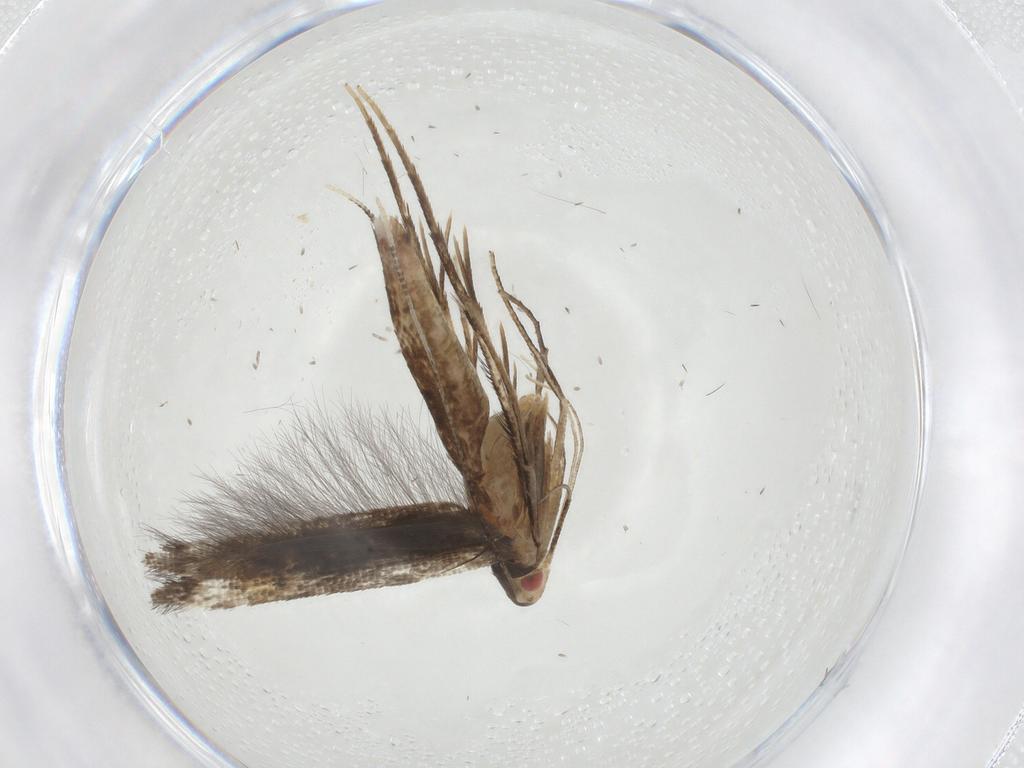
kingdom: Animalia
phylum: Arthropoda
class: Insecta
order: Lepidoptera
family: Cosmopterigidae
